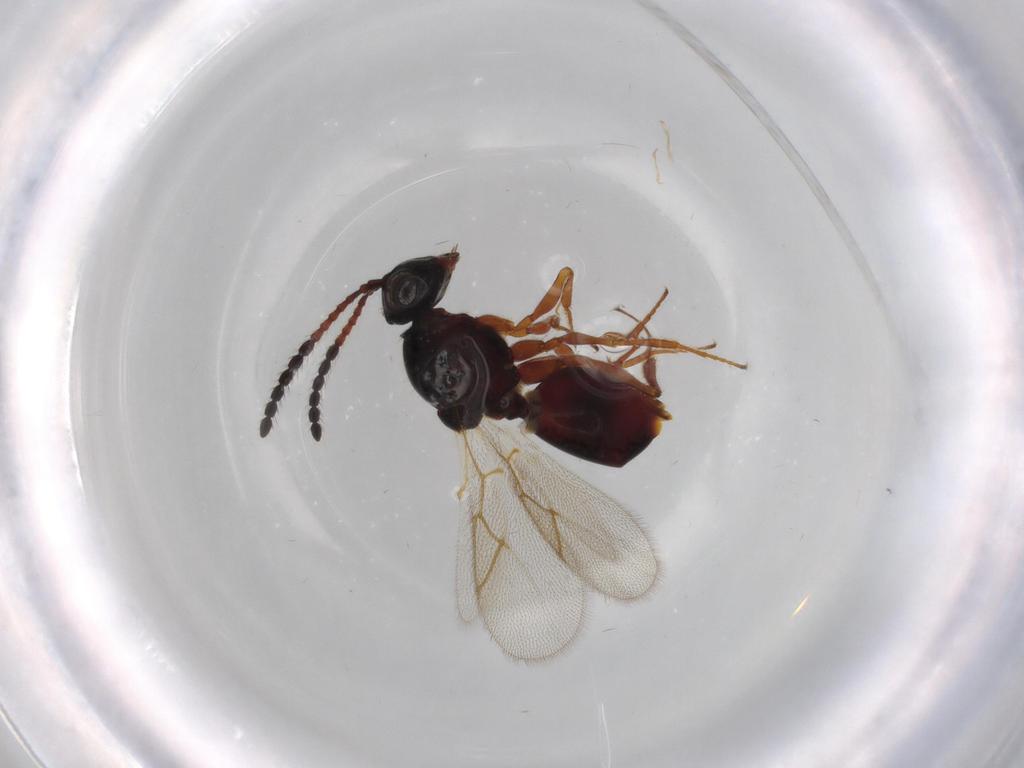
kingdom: Animalia
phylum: Arthropoda
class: Insecta
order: Hymenoptera
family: Figitidae
